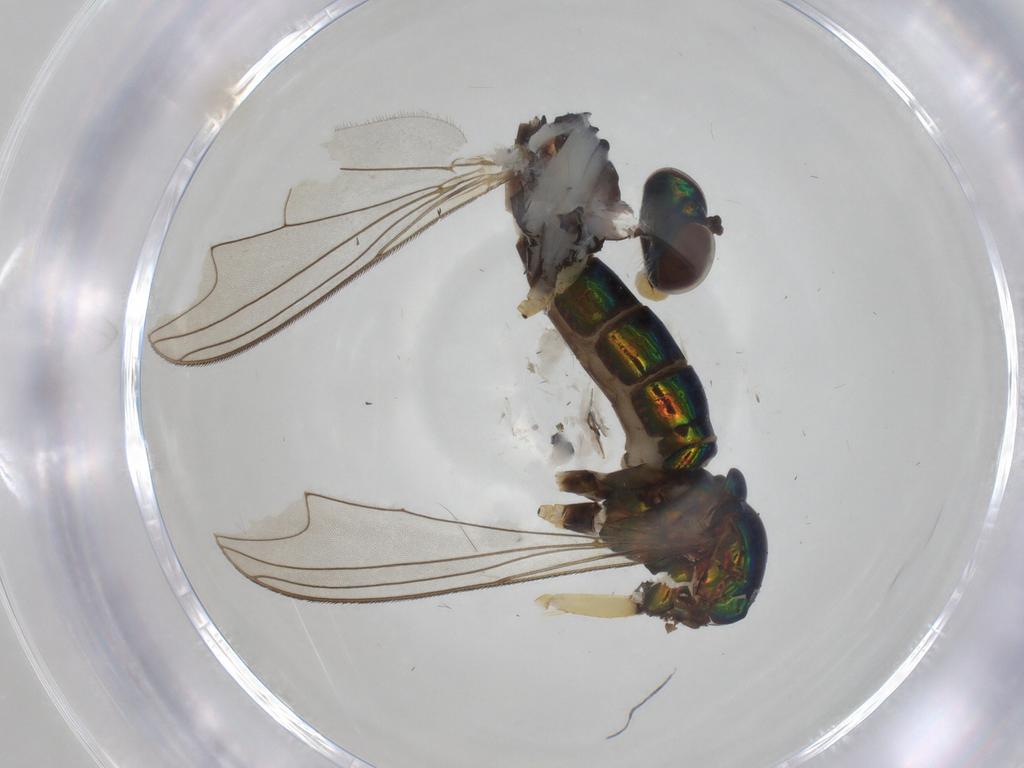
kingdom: Animalia
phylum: Arthropoda
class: Insecta
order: Diptera
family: Dolichopodidae
